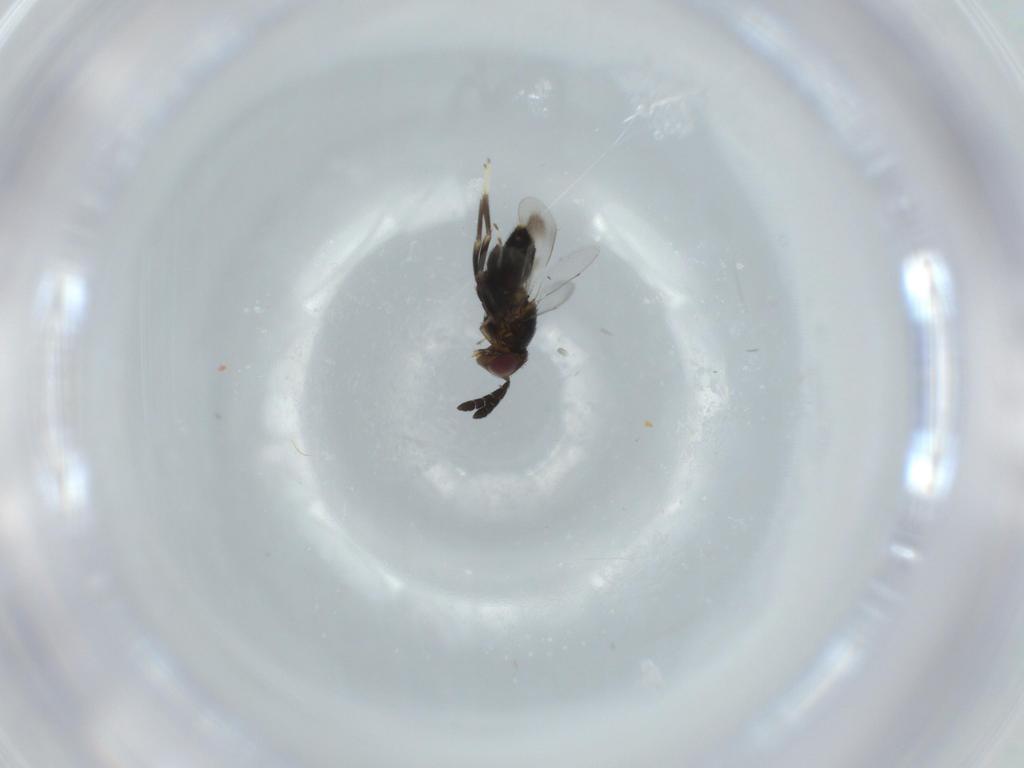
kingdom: Animalia
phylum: Arthropoda
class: Insecta
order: Hymenoptera
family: Aphelinidae
